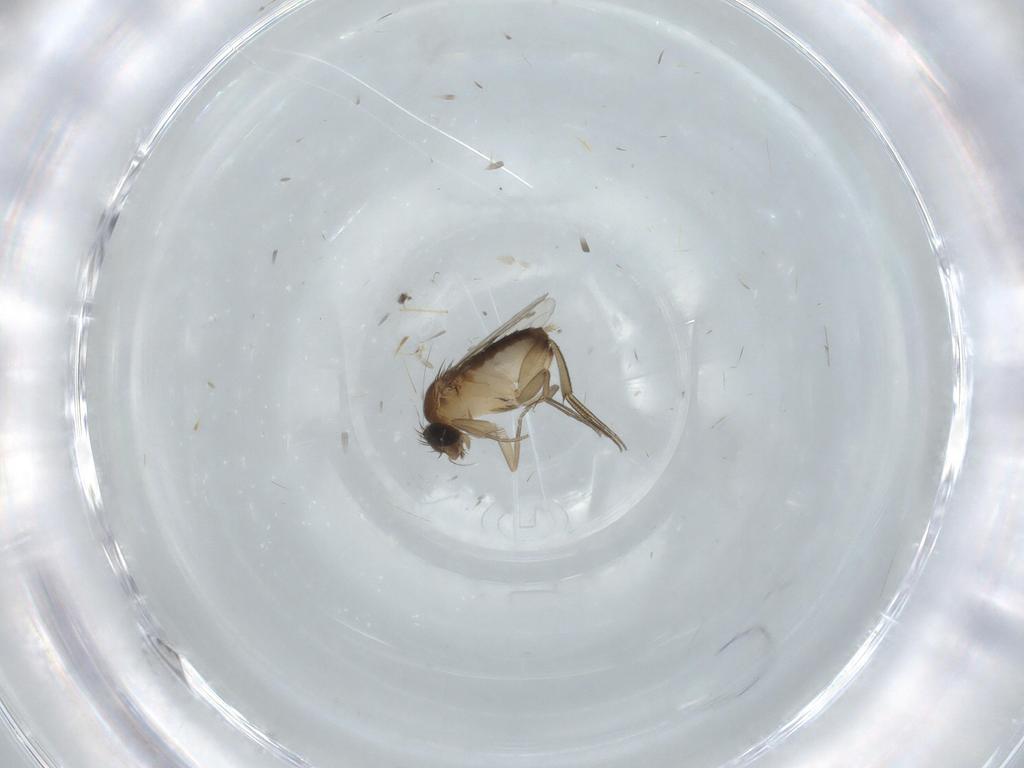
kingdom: Animalia
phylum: Arthropoda
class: Insecta
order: Diptera
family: Phoridae
